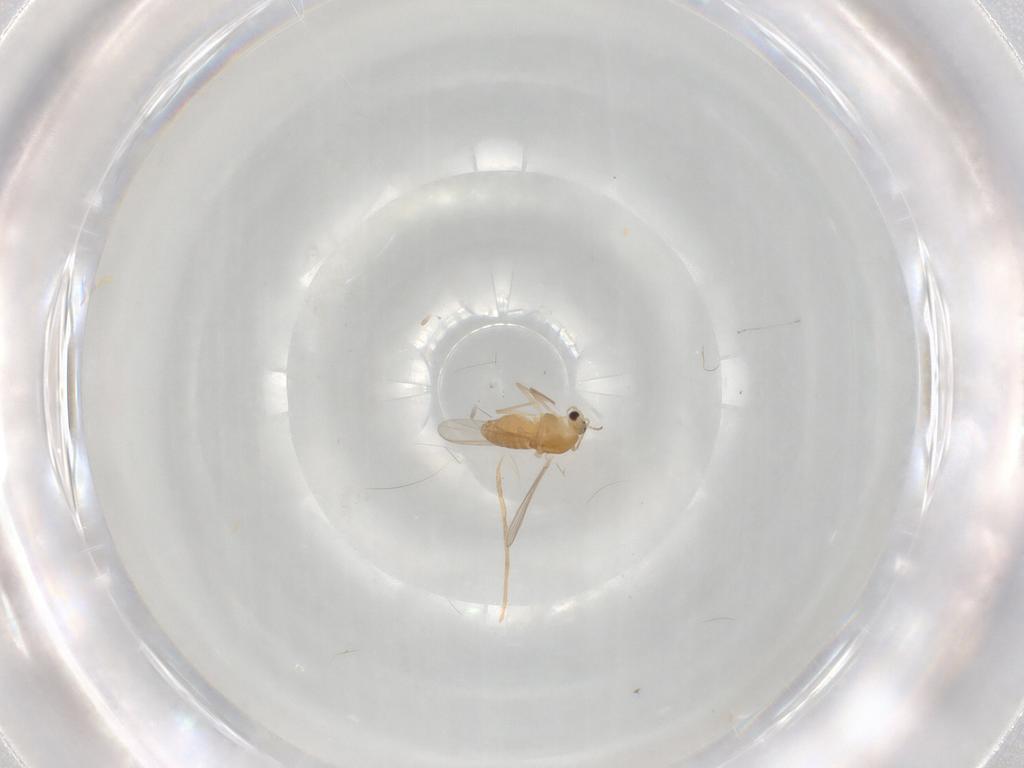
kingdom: Animalia
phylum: Arthropoda
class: Insecta
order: Diptera
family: Chironomidae
